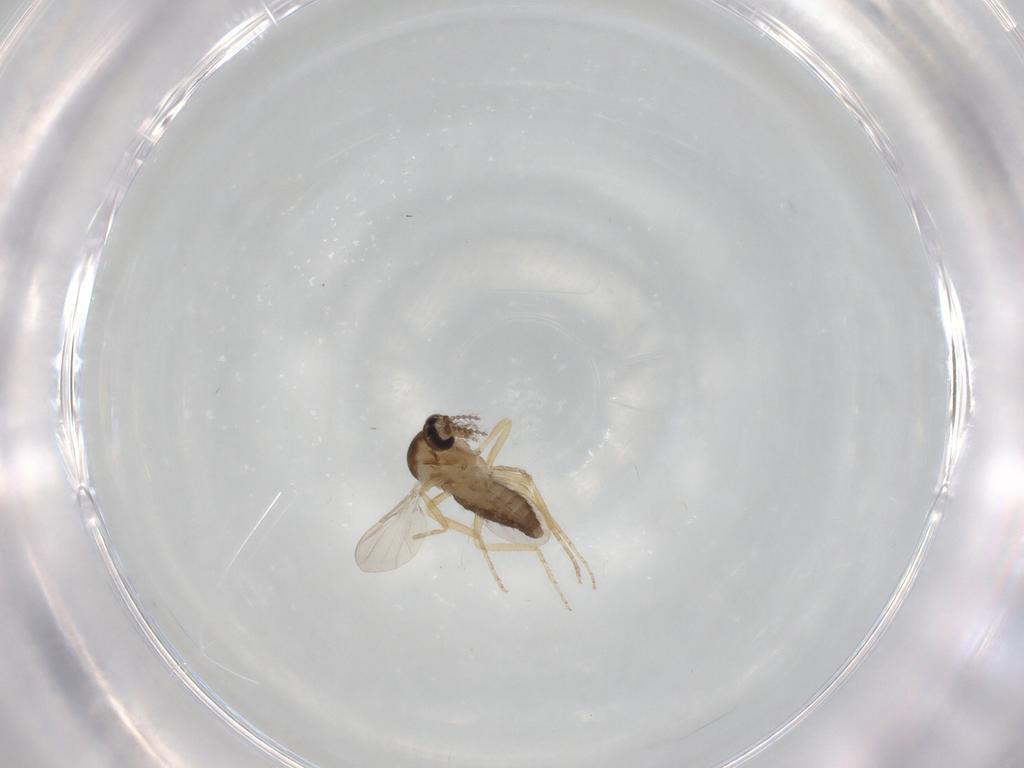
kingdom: Animalia
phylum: Arthropoda
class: Insecta
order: Diptera
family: Ceratopogonidae
